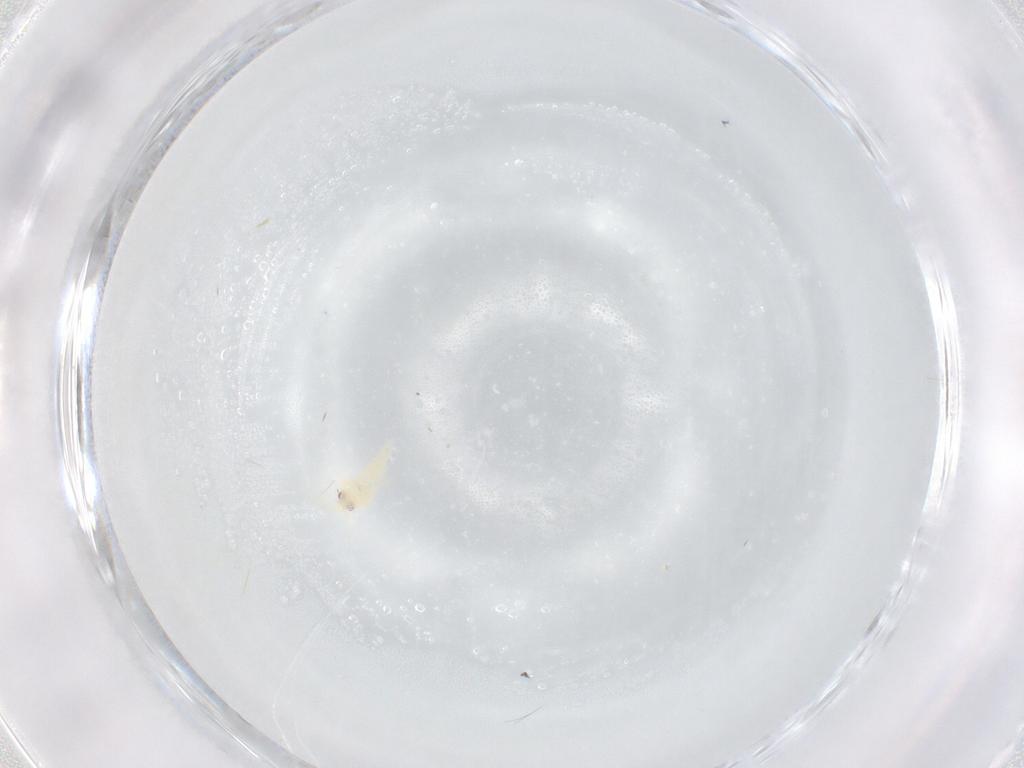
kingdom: Animalia
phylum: Arthropoda
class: Insecta
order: Hemiptera
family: Aleyrodidae
